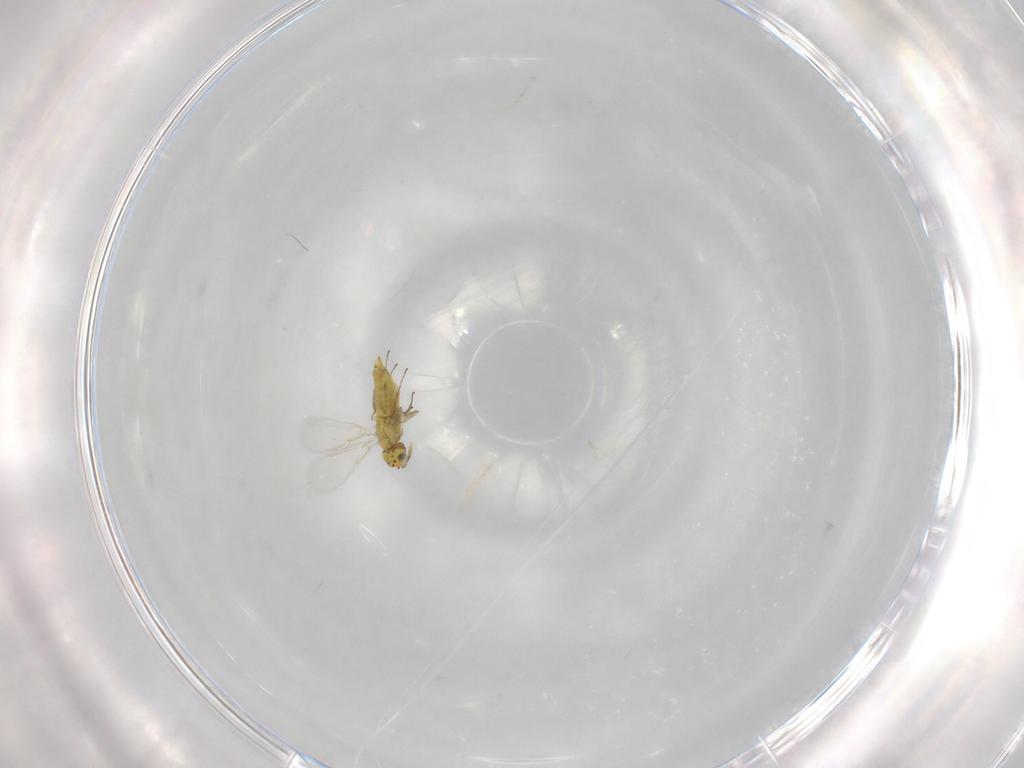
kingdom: Animalia
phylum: Arthropoda
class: Insecta
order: Hymenoptera
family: Aphelinidae
